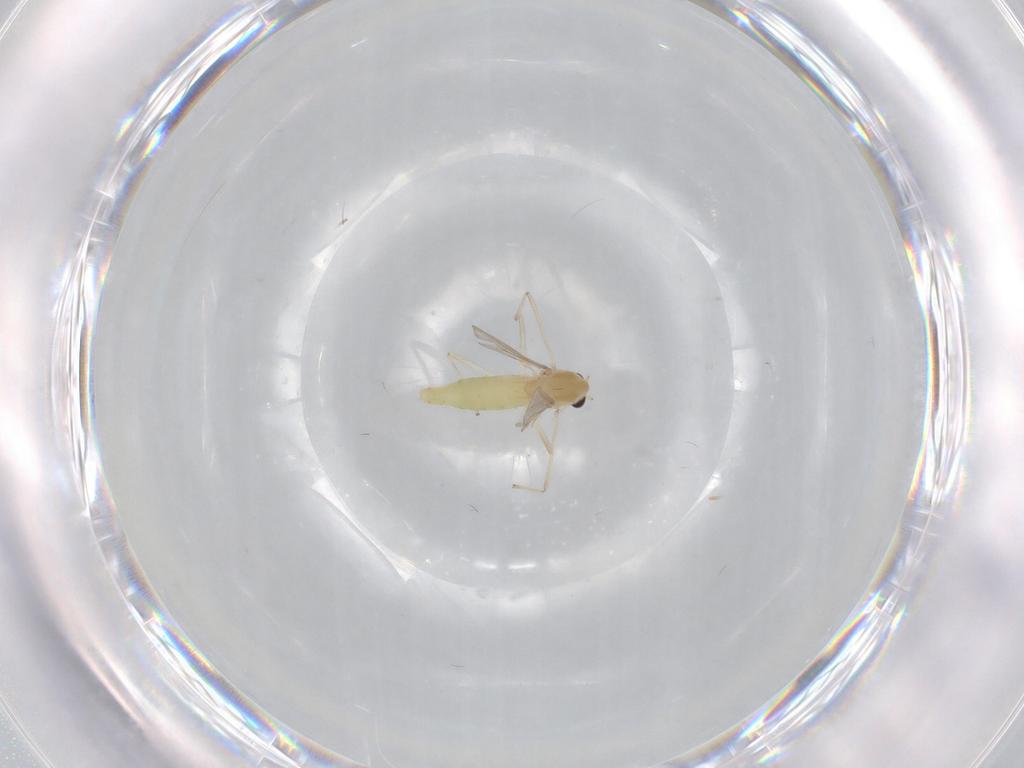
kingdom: Animalia
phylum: Arthropoda
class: Insecta
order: Diptera
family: Chironomidae
